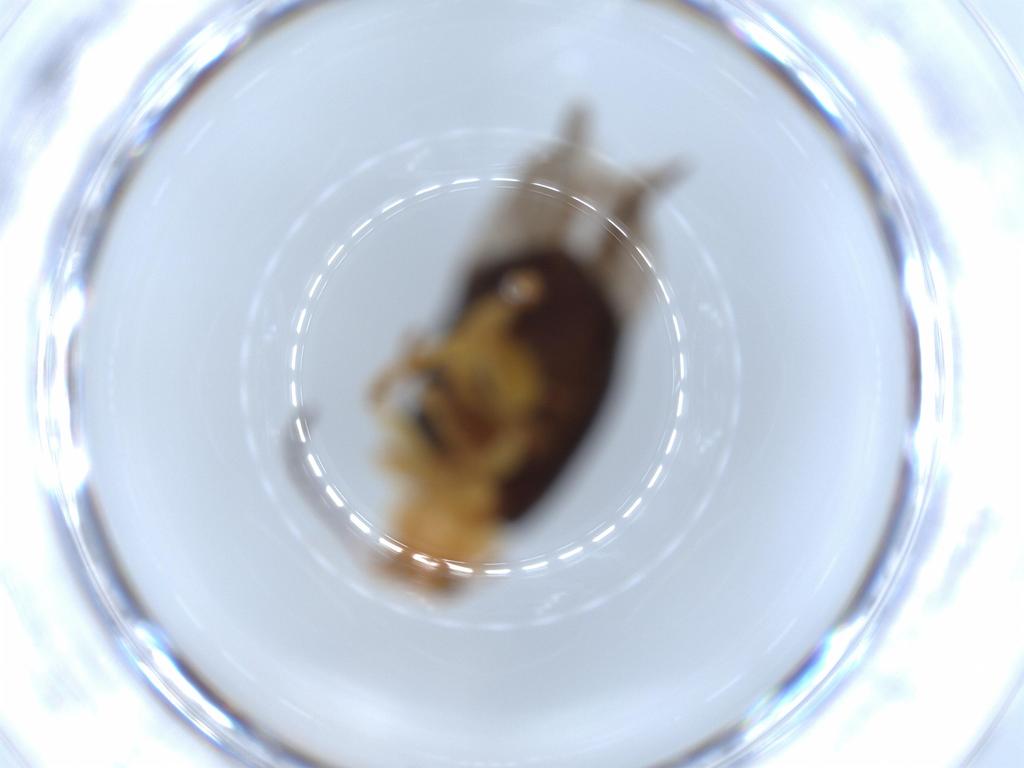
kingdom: Animalia
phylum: Arthropoda
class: Insecta
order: Coleoptera
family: Chrysomelidae
